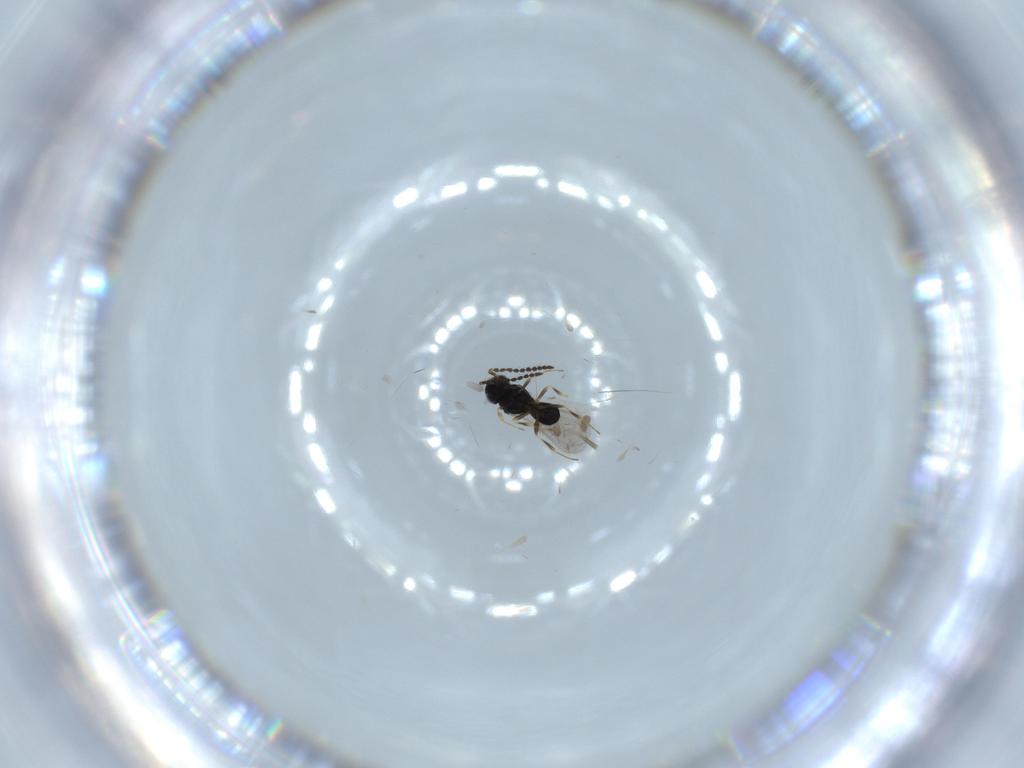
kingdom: Animalia
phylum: Arthropoda
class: Insecta
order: Hymenoptera
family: Scelionidae
